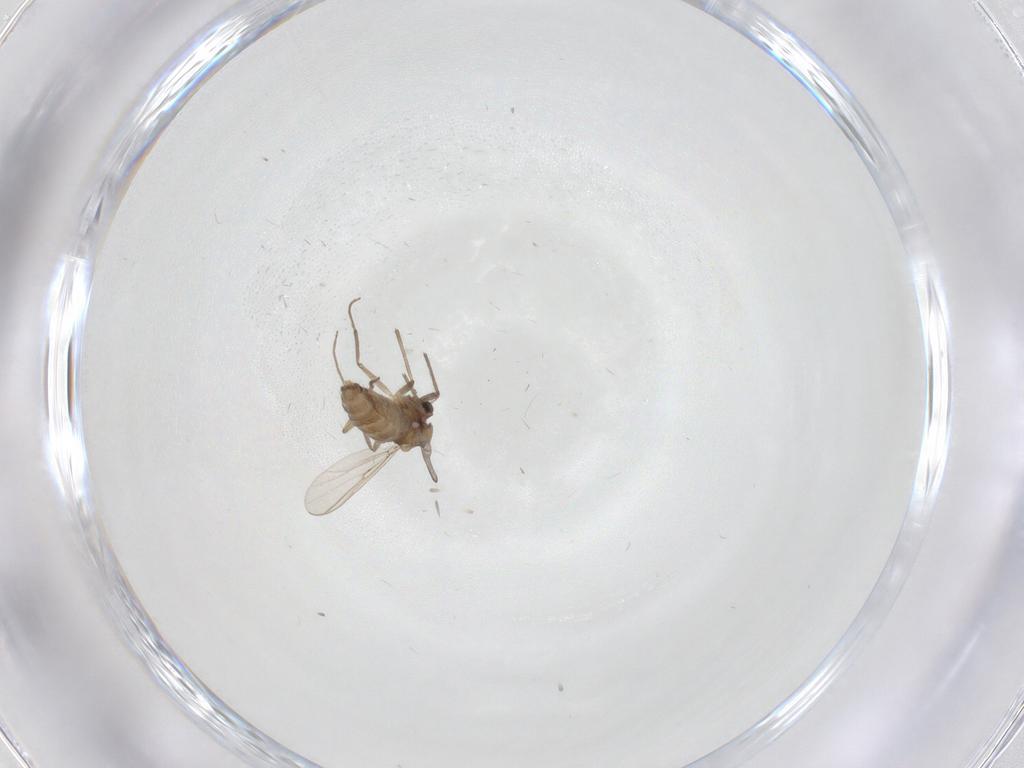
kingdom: Animalia
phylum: Arthropoda
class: Insecta
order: Diptera
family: Chironomidae
